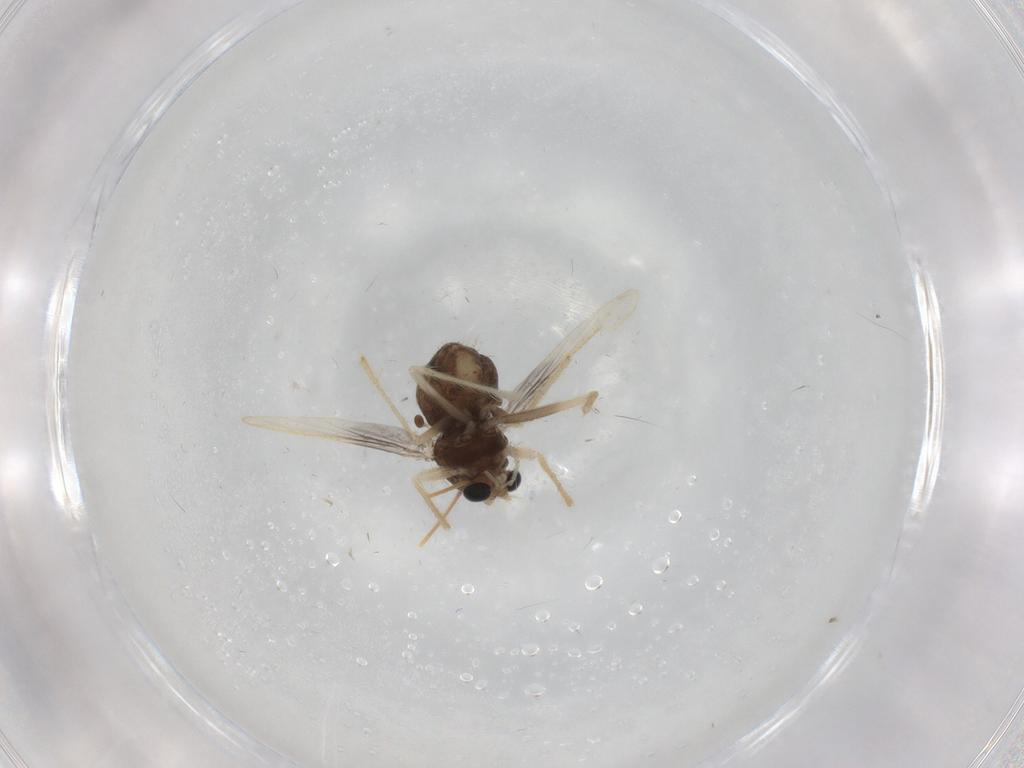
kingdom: Animalia
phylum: Arthropoda
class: Insecta
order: Diptera
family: Chironomidae
